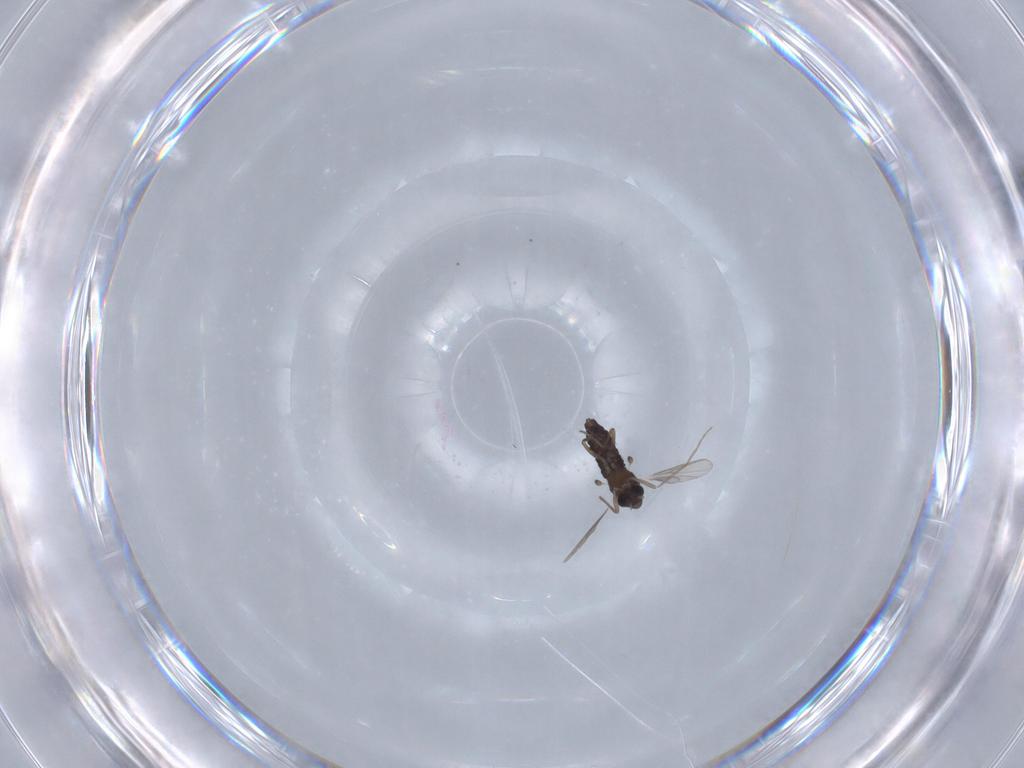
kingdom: Animalia
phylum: Arthropoda
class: Insecta
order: Diptera
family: Chironomidae
